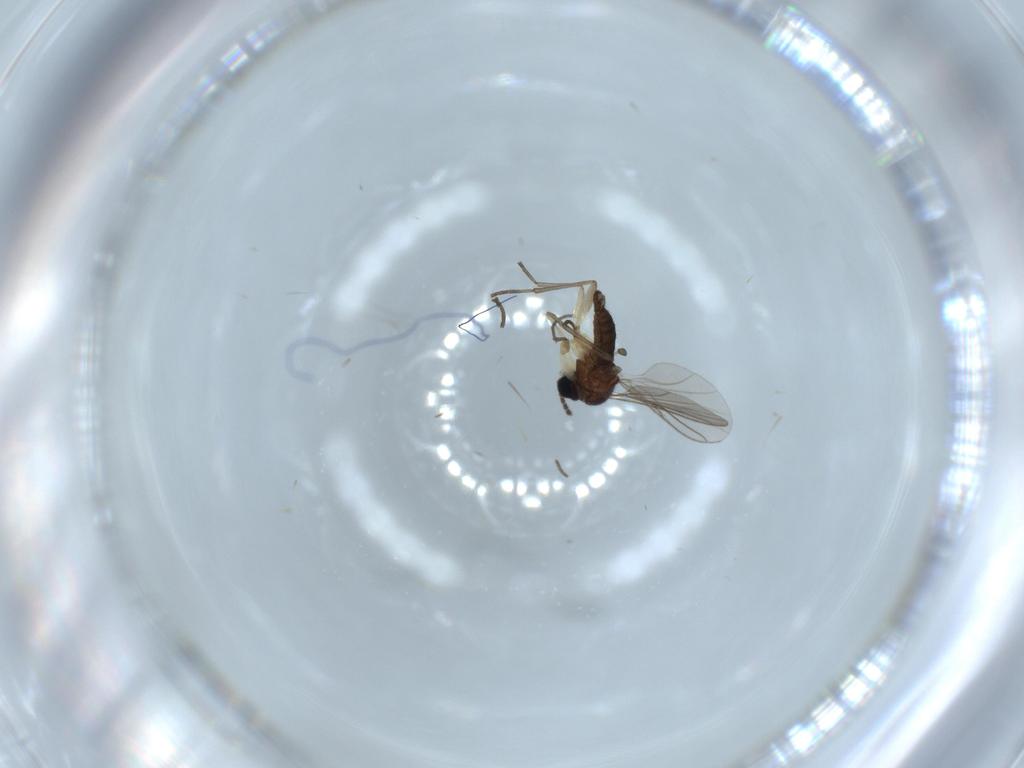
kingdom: Animalia
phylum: Arthropoda
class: Insecta
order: Diptera
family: Sciaridae
